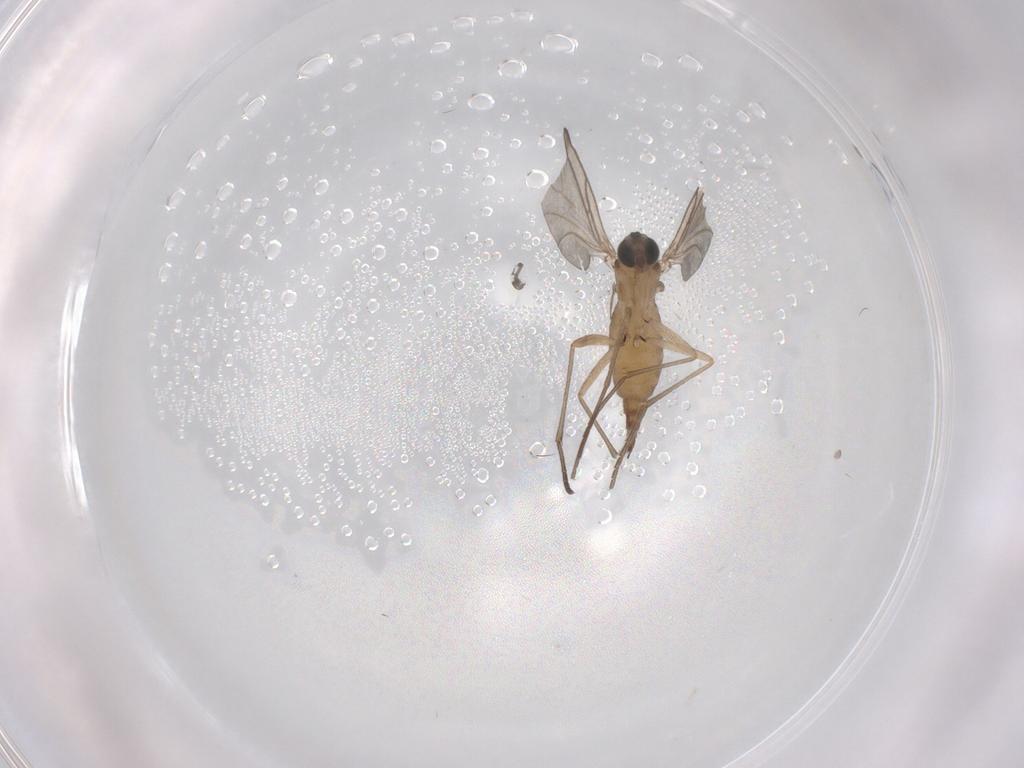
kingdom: Animalia
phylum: Arthropoda
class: Insecta
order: Diptera
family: Sciaridae
